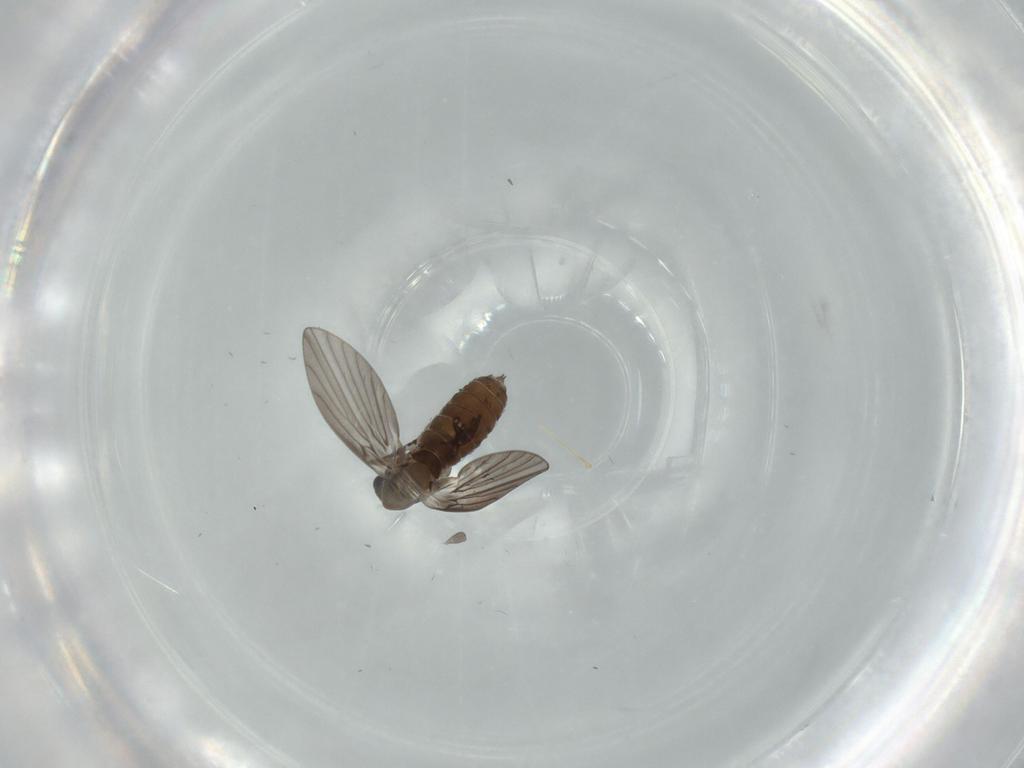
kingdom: Animalia
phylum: Arthropoda
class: Insecta
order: Diptera
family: Psychodidae
